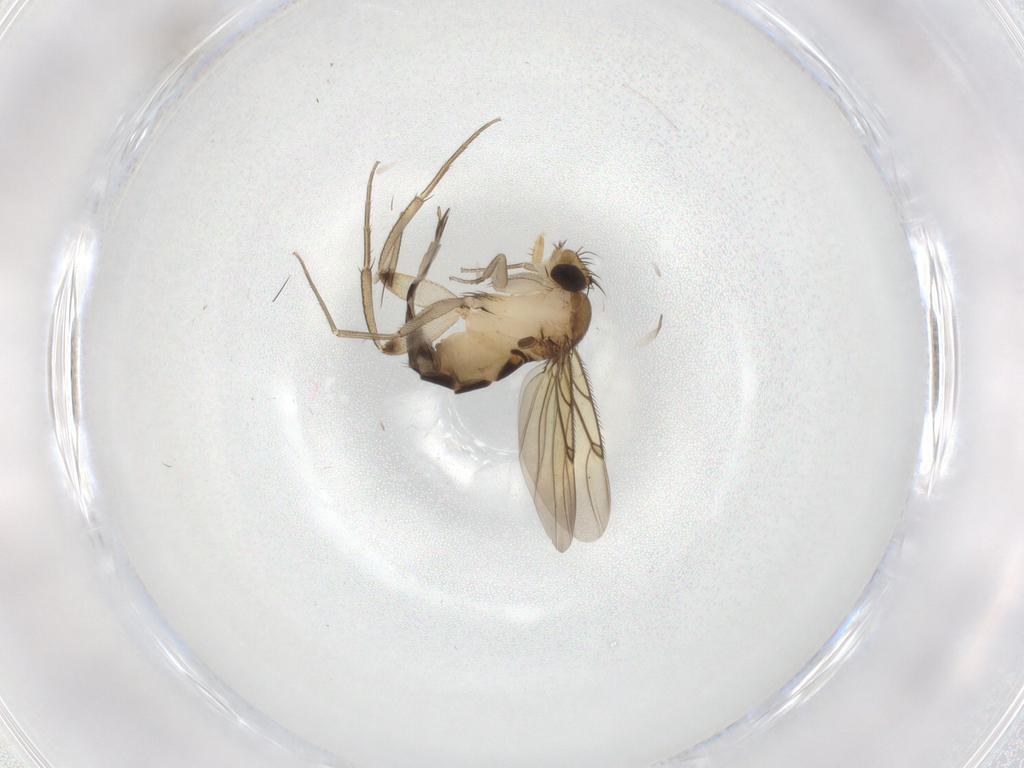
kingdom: Animalia
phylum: Arthropoda
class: Insecta
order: Diptera
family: Phoridae
